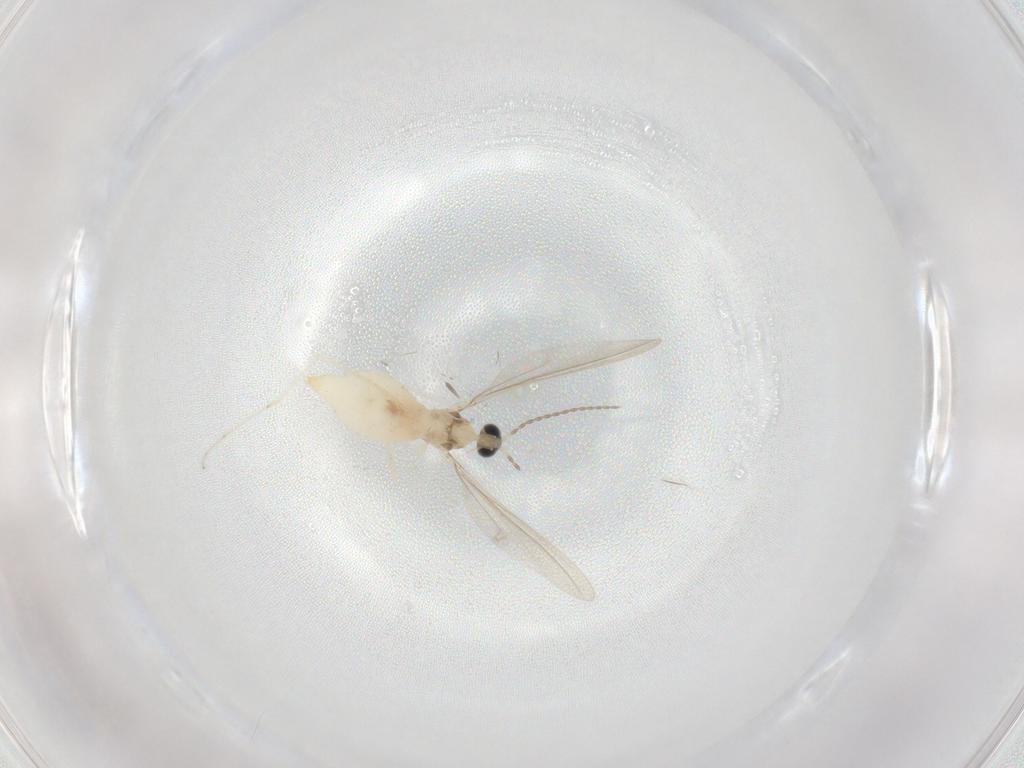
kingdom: Animalia
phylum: Arthropoda
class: Insecta
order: Diptera
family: Cecidomyiidae
